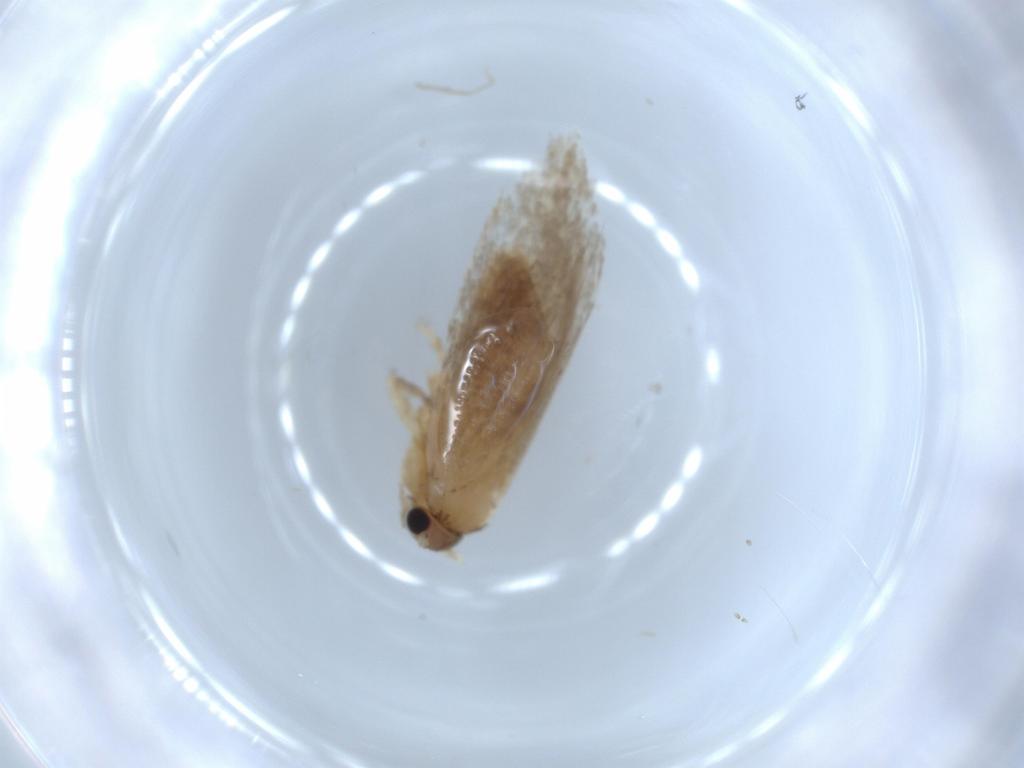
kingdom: Animalia
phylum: Arthropoda
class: Insecta
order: Lepidoptera
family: Tineidae
